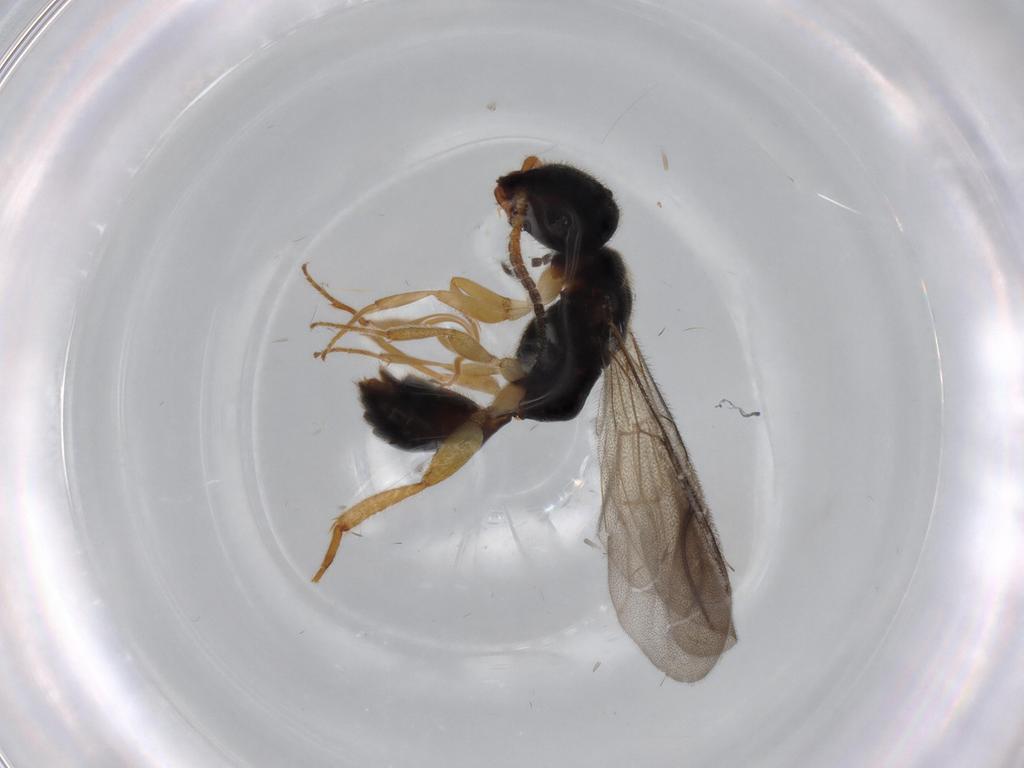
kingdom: Animalia
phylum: Arthropoda
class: Insecta
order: Hymenoptera
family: Bethylidae
